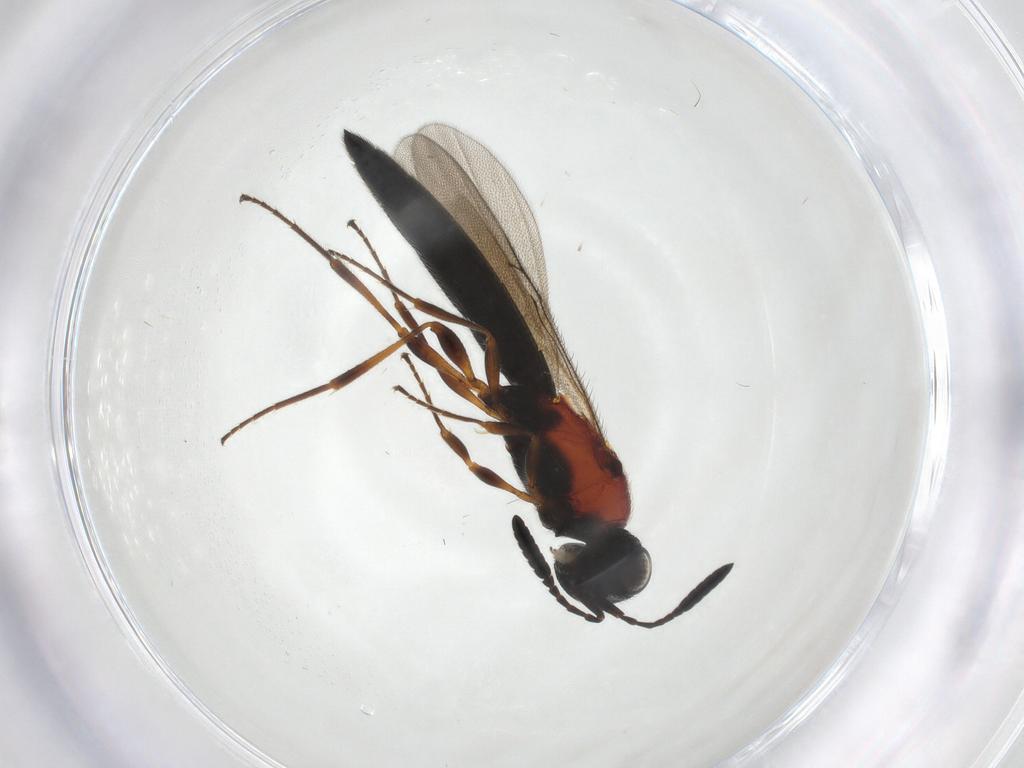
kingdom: Animalia
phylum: Arthropoda
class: Insecta
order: Hymenoptera
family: Scelionidae
